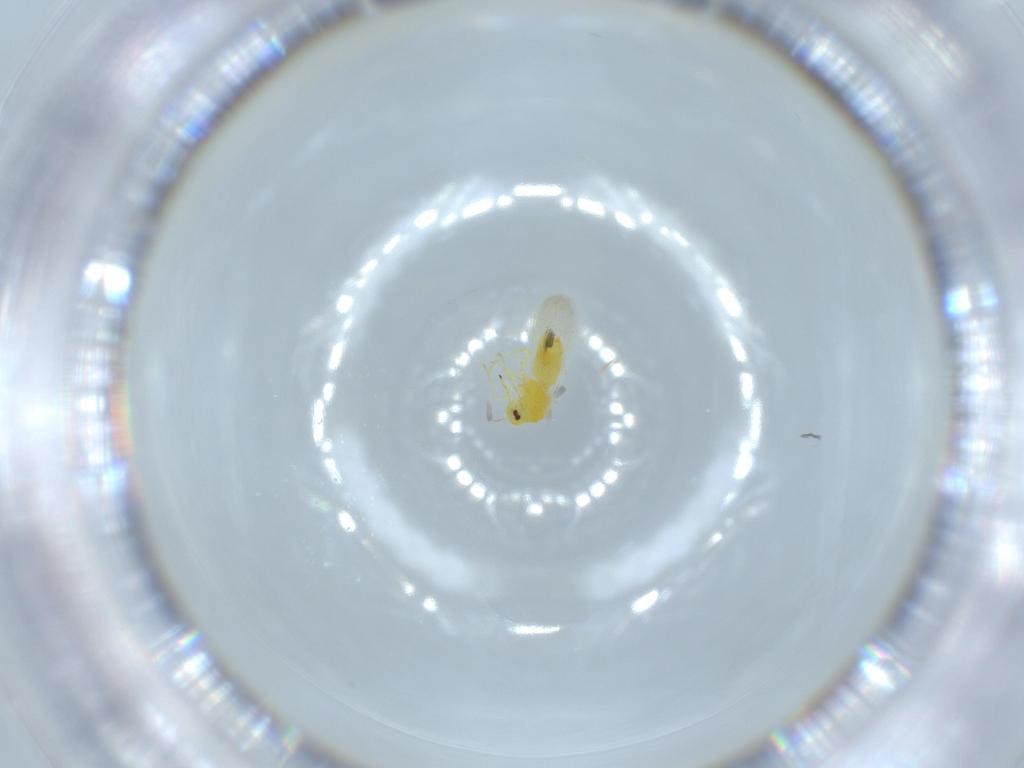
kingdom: Animalia
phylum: Arthropoda
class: Insecta
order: Hemiptera
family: Aleyrodidae
